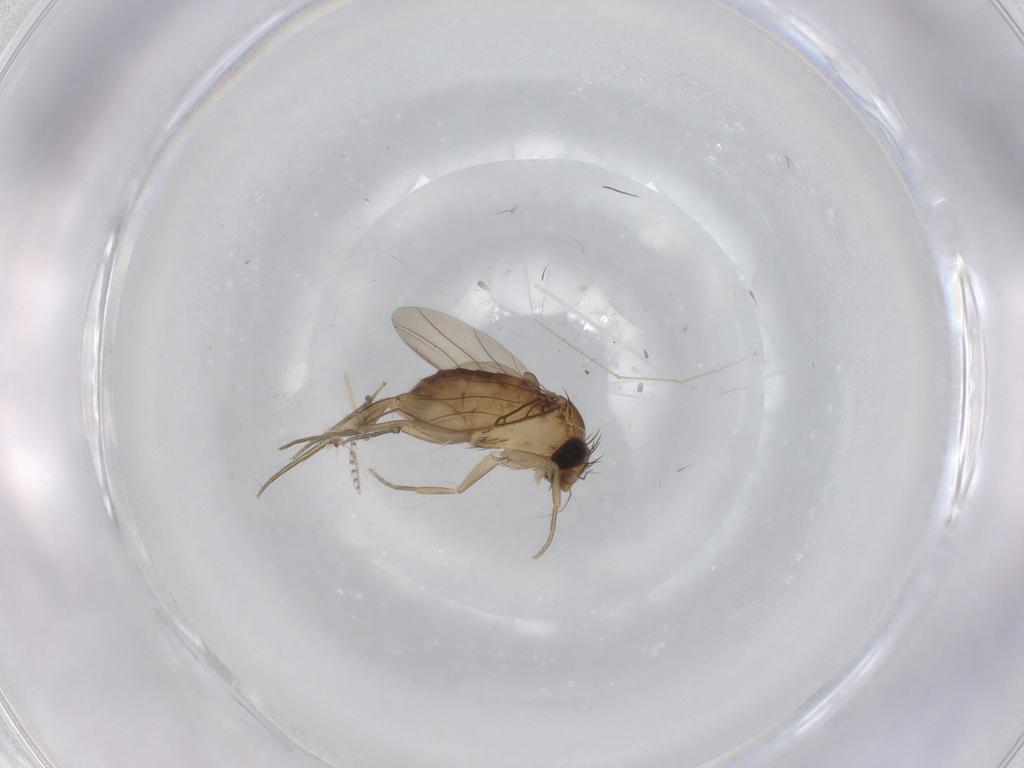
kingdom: Animalia
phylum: Arthropoda
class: Insecta
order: Diptera
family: Phoridae
